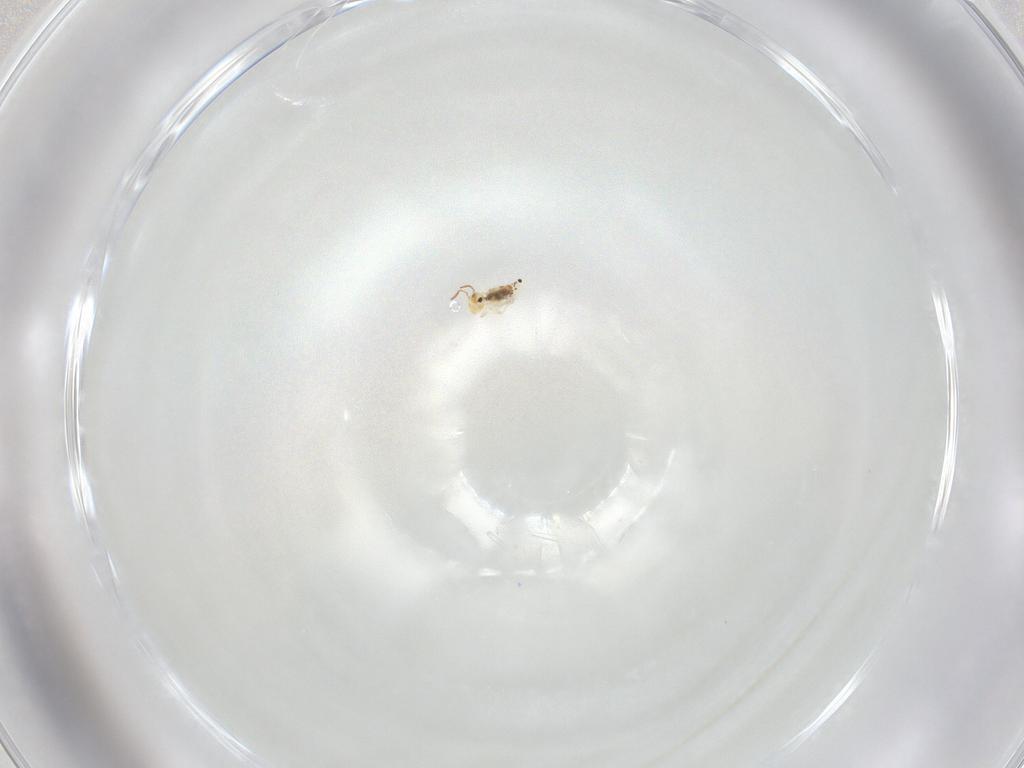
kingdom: Animalia
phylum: Arthropoda
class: Collembola
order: Symphypleona
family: Bourletiellidae
